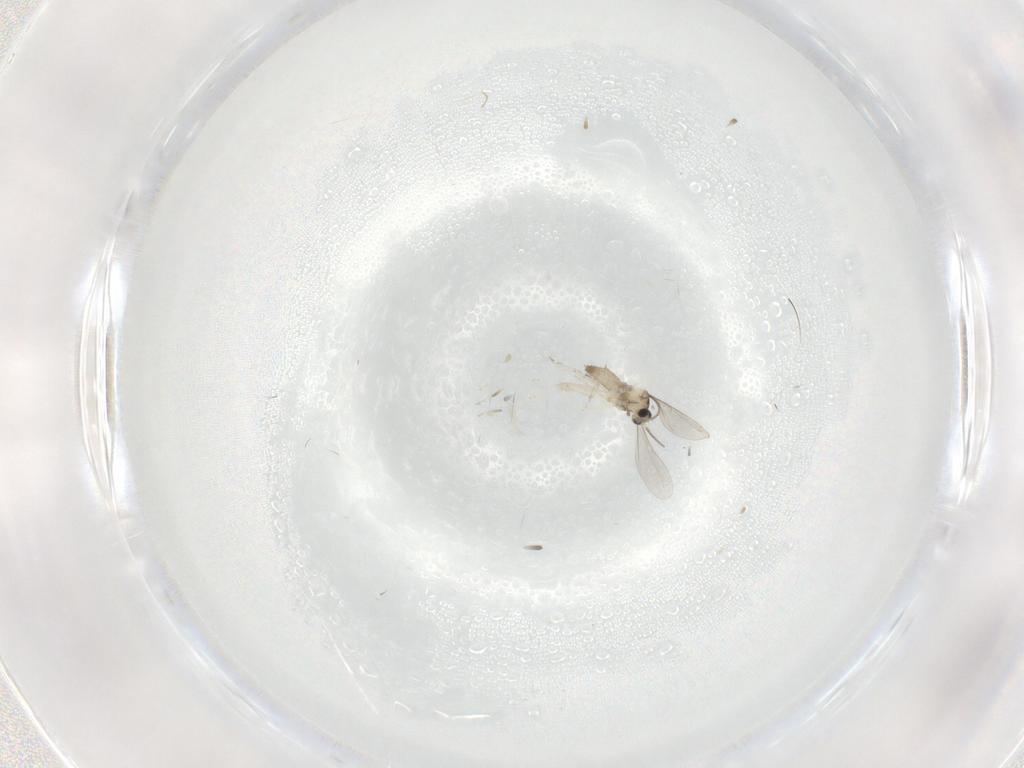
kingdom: Animalia
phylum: Arthropoda
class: Insecta
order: Diptera
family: Cecidomyiidae
